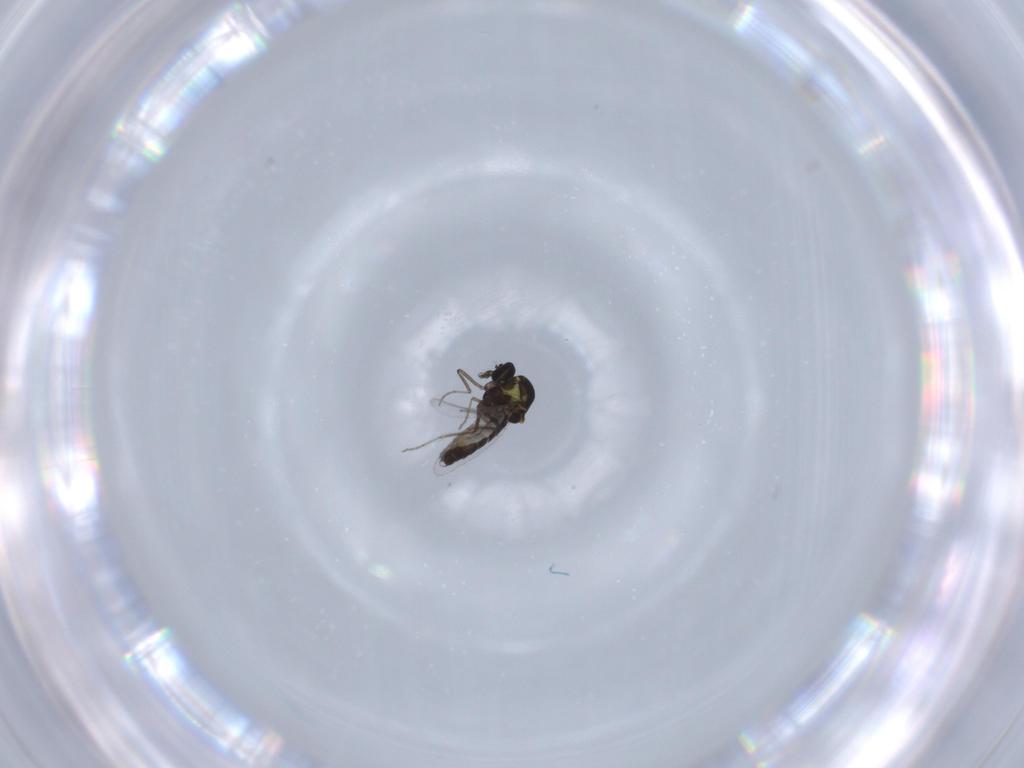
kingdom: Animalia
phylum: Arthropoda
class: Insecta
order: Diptera
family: Ceratopogonidae
